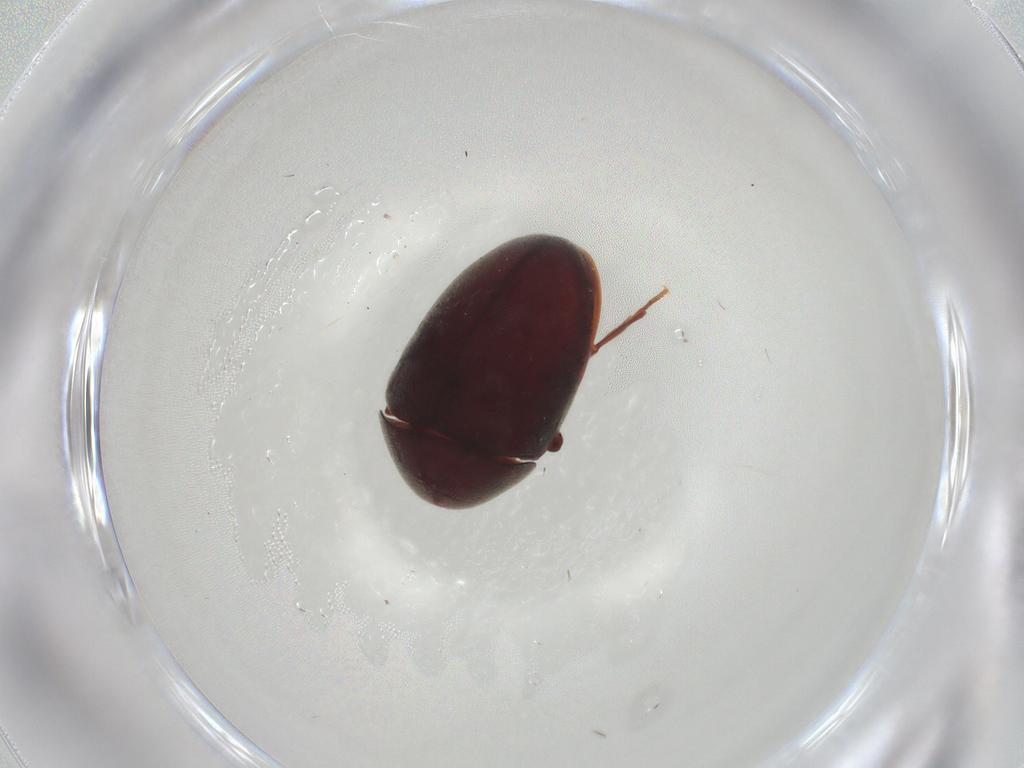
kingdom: Animalia
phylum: Arthropoda
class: Insecta
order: Coleoptera
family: Anobiidae
